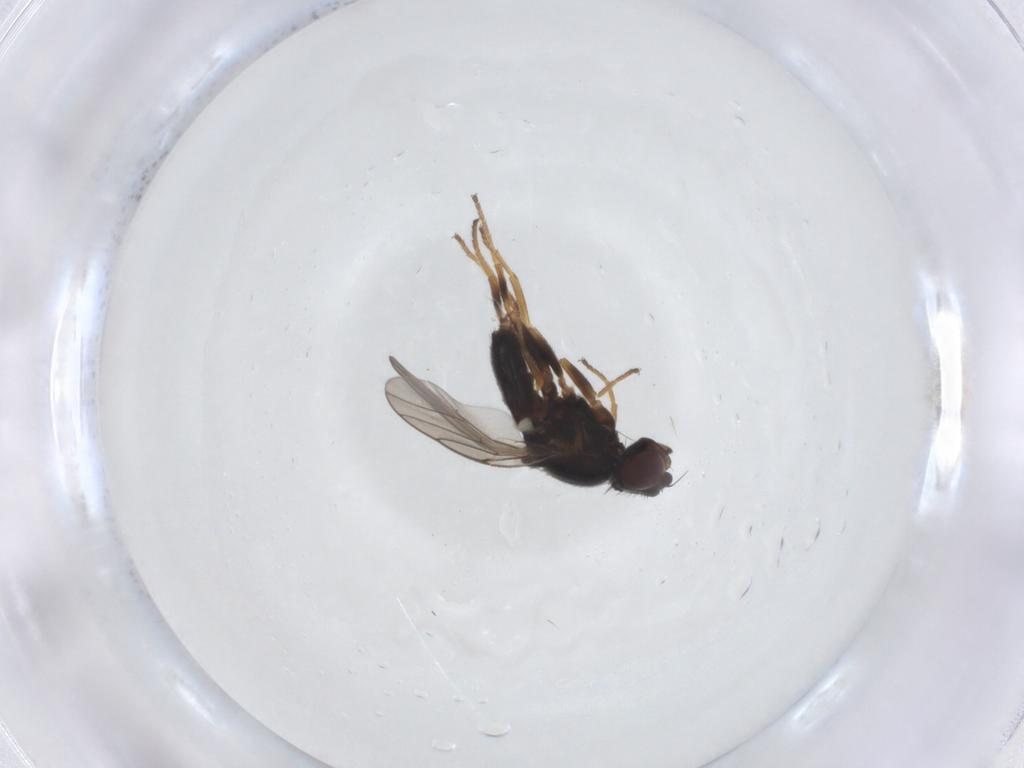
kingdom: Animalia
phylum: Arthropoda
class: Insecta
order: Diptera
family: Chloropidae
